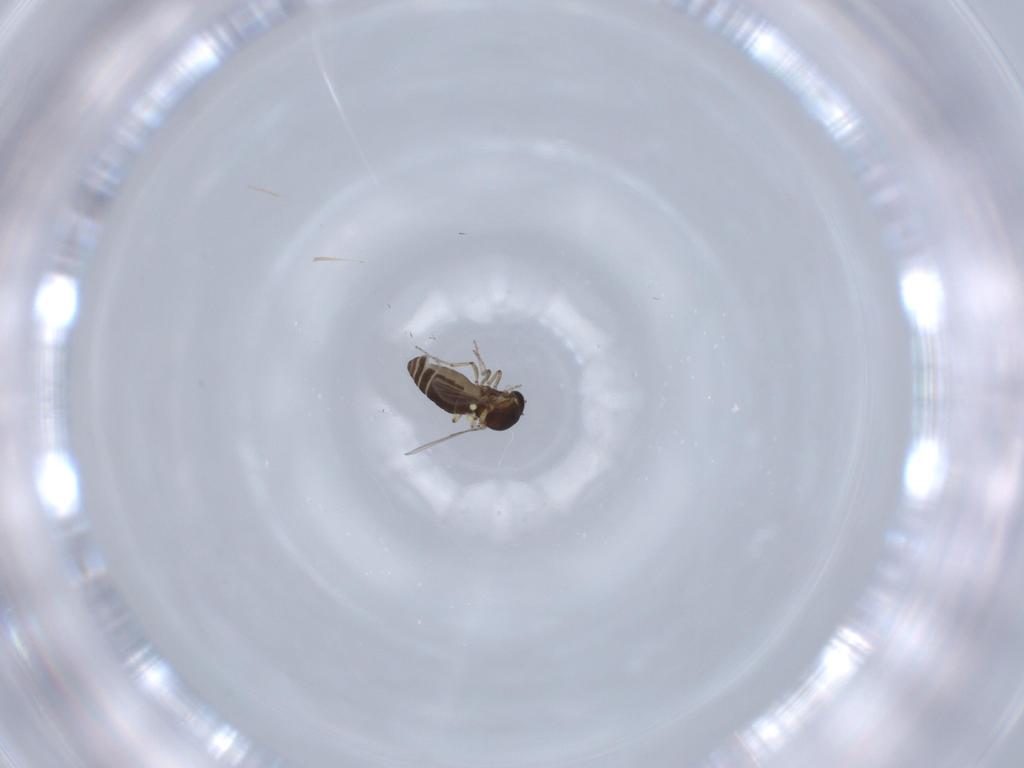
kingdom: Animalia
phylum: Arthropoda
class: Insecta
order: Diptera
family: Ceratopogonidae
